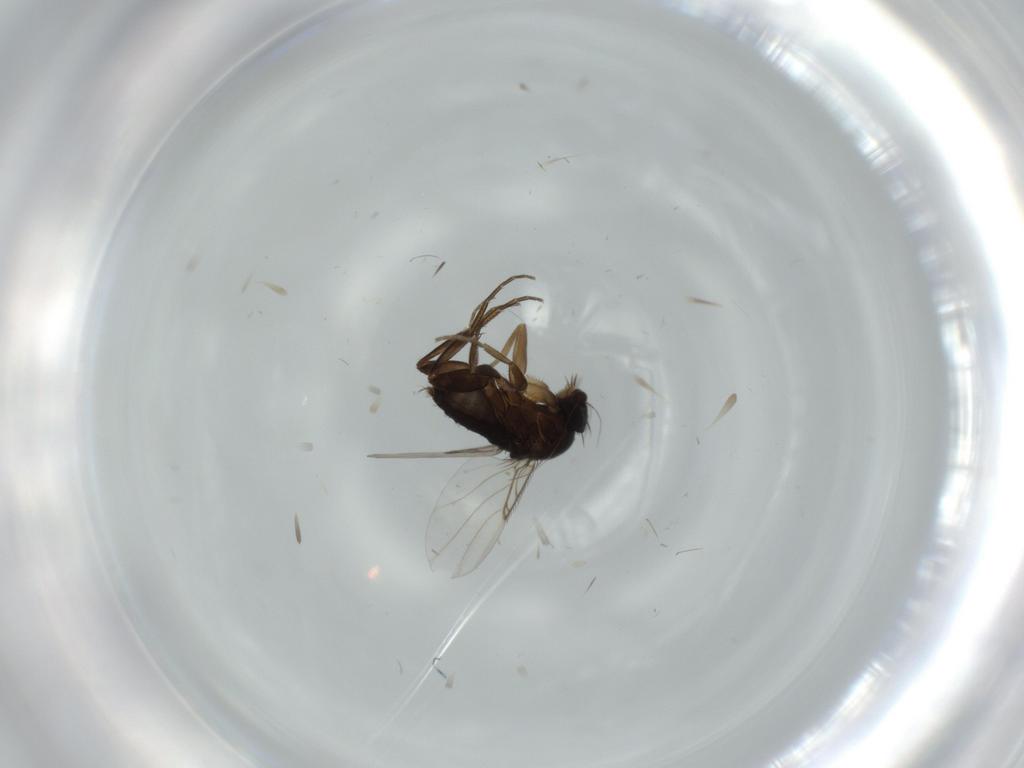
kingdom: Animalia
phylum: Arthropoda
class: Insecta
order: Diptera
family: Phoridae
